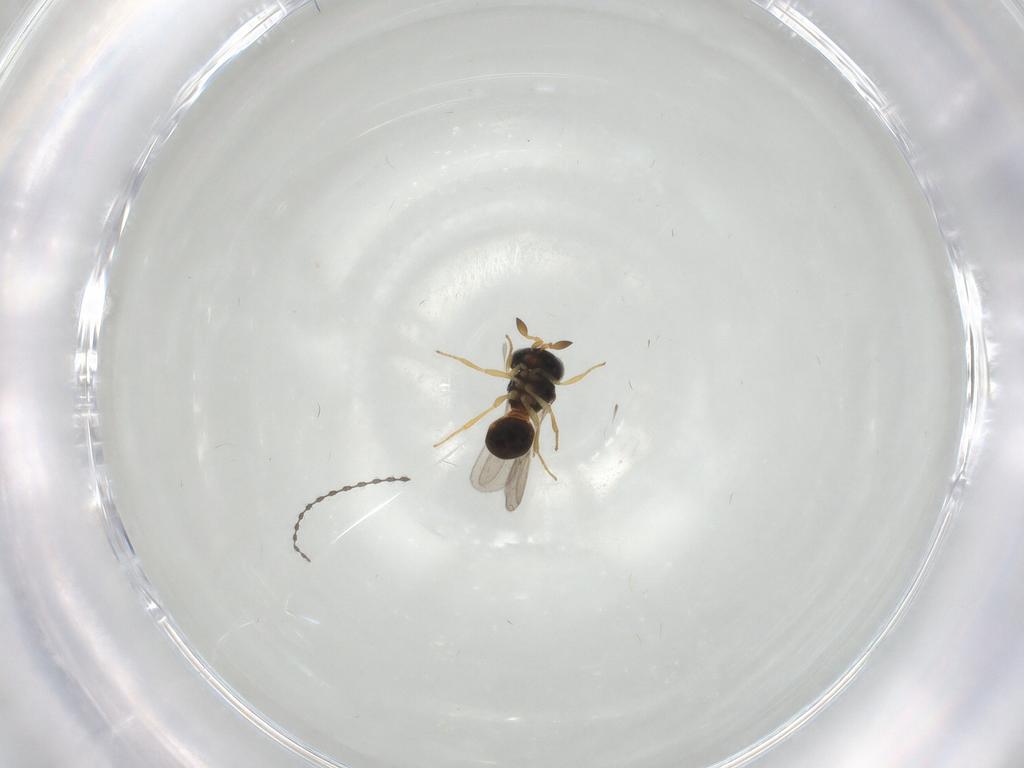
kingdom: Animalia
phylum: Arthropoda
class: Insecta
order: Hymenoptera
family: Scelionidae
